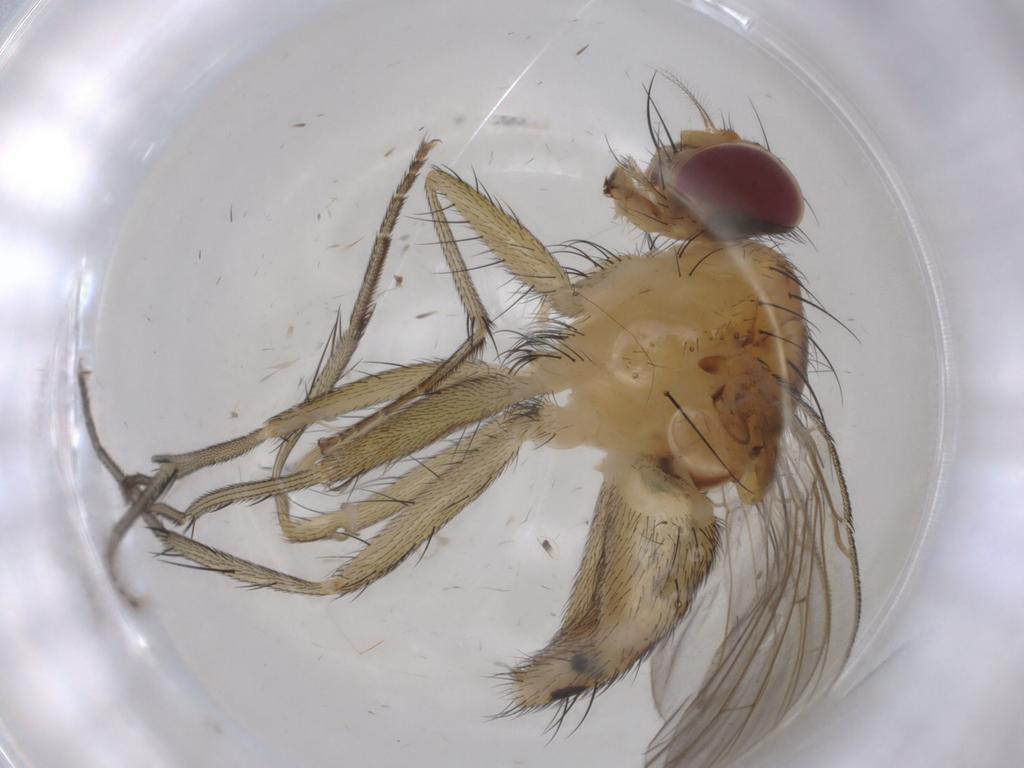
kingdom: Animalia
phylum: Arthropoda
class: Insecta
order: Diptera
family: Muscidae
